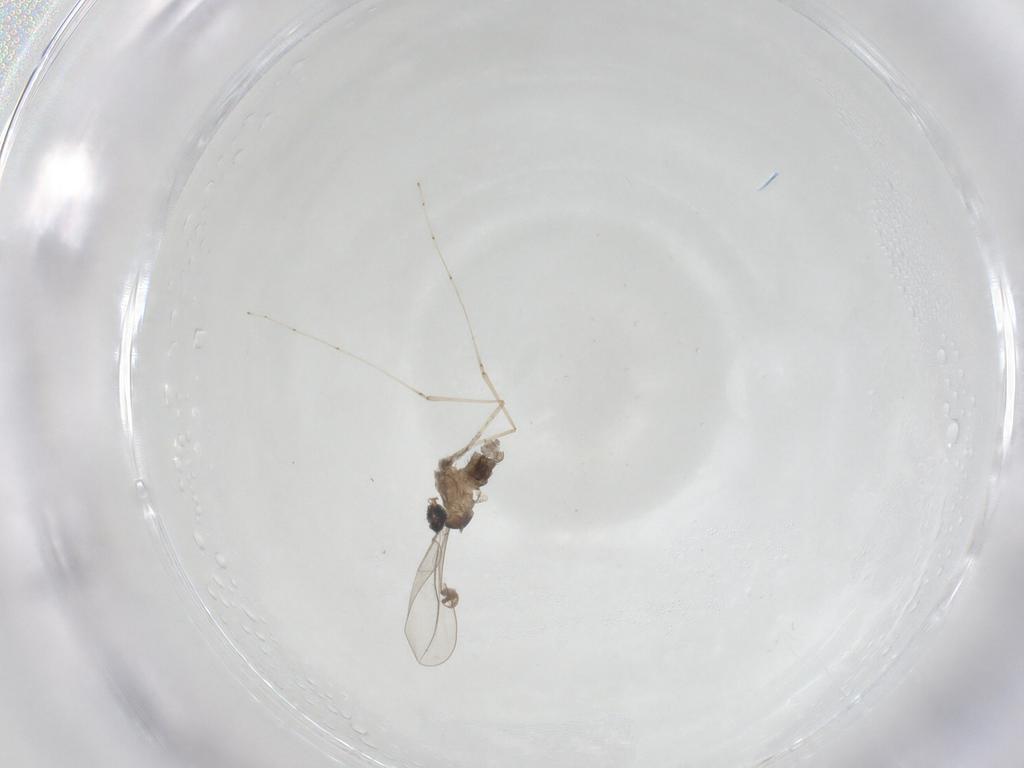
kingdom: Animalia
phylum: Arthropoda
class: Insecta
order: Diptera
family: Cecidomyiidae
